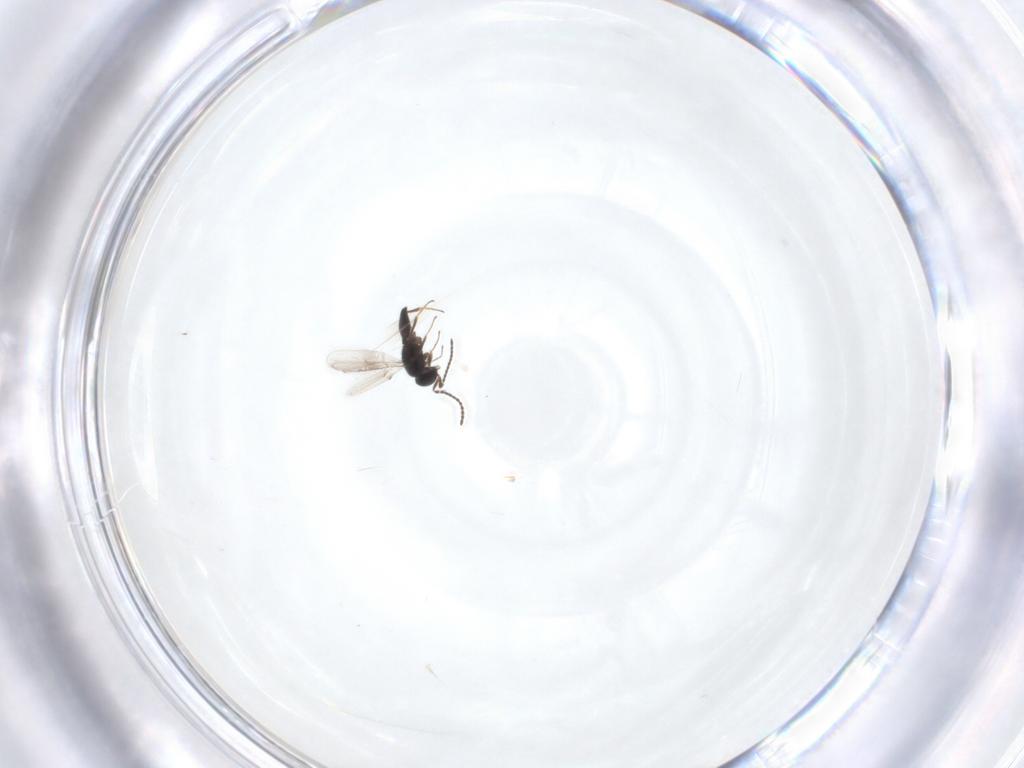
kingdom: Animalia
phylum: Arthropoda
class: Insecta
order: Hymenoptera
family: Scelionidae
